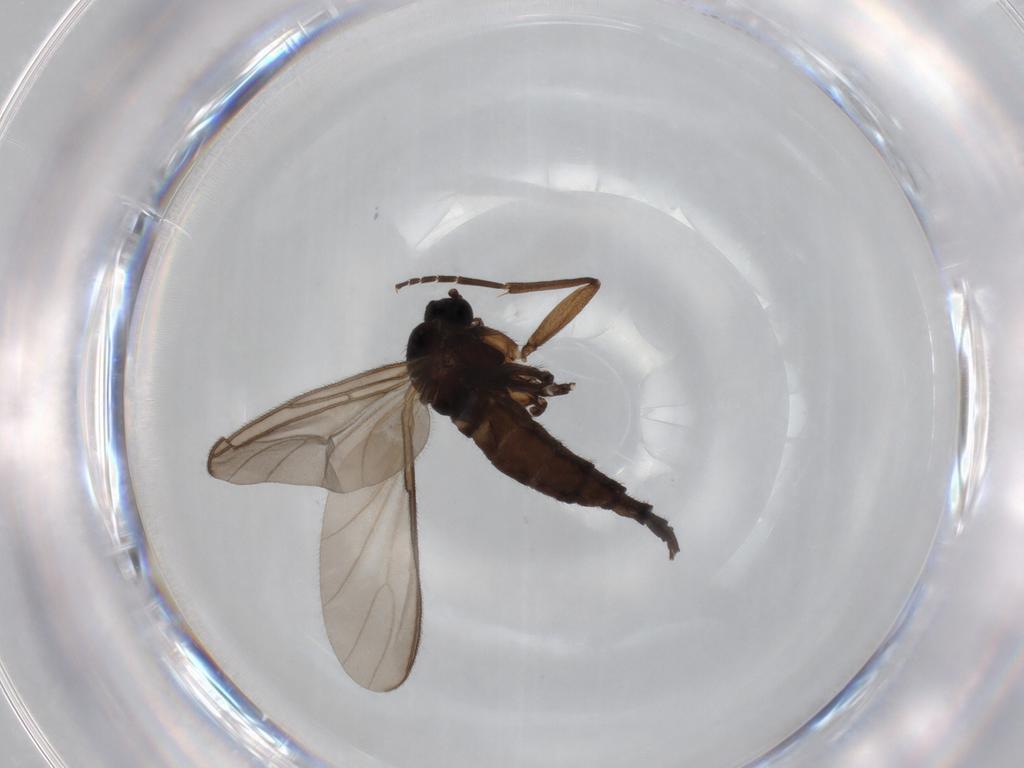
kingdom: Animalia
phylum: Arthropoda
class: Insecta
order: Diptera
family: Sciaridae
